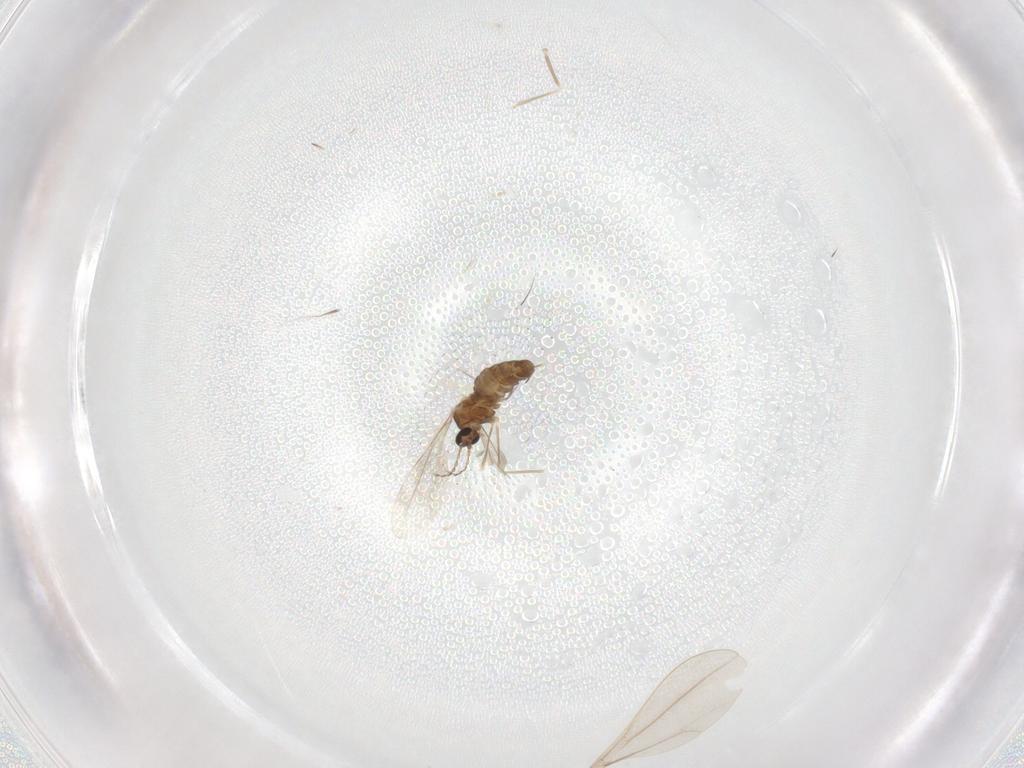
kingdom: Animalia
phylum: Arthropoda
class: Insecta
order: Diptera
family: Cecidomyiidae
